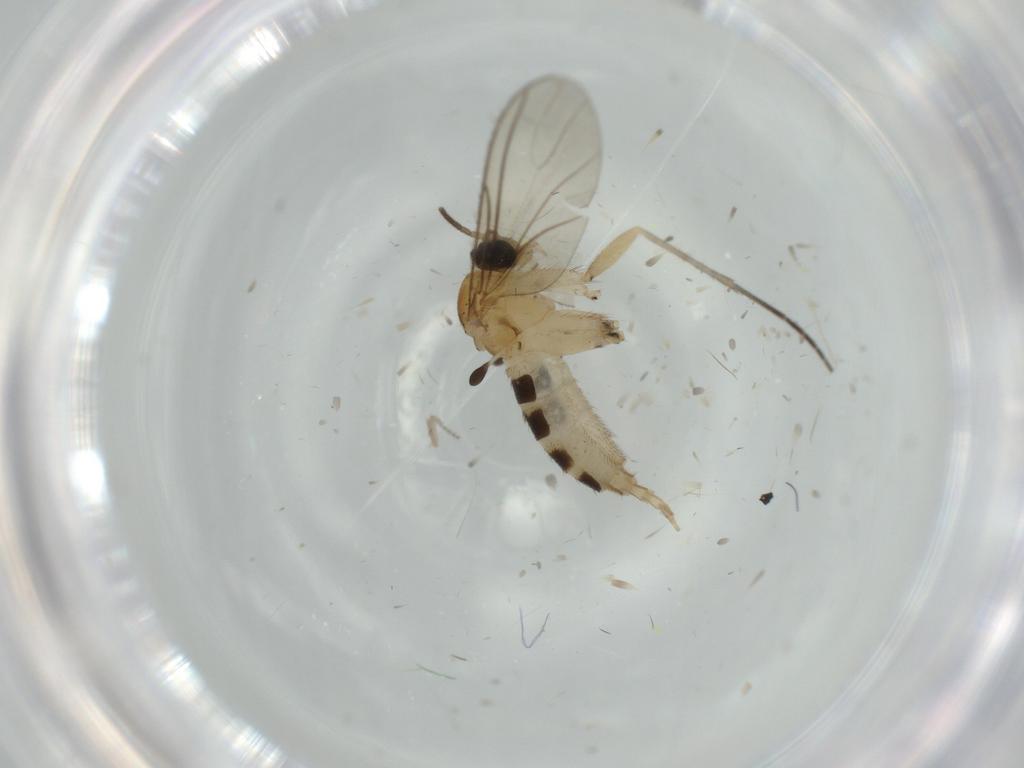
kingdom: Animalia
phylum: Arthropoda
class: Insecta
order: Diptera
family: Sciaridae
